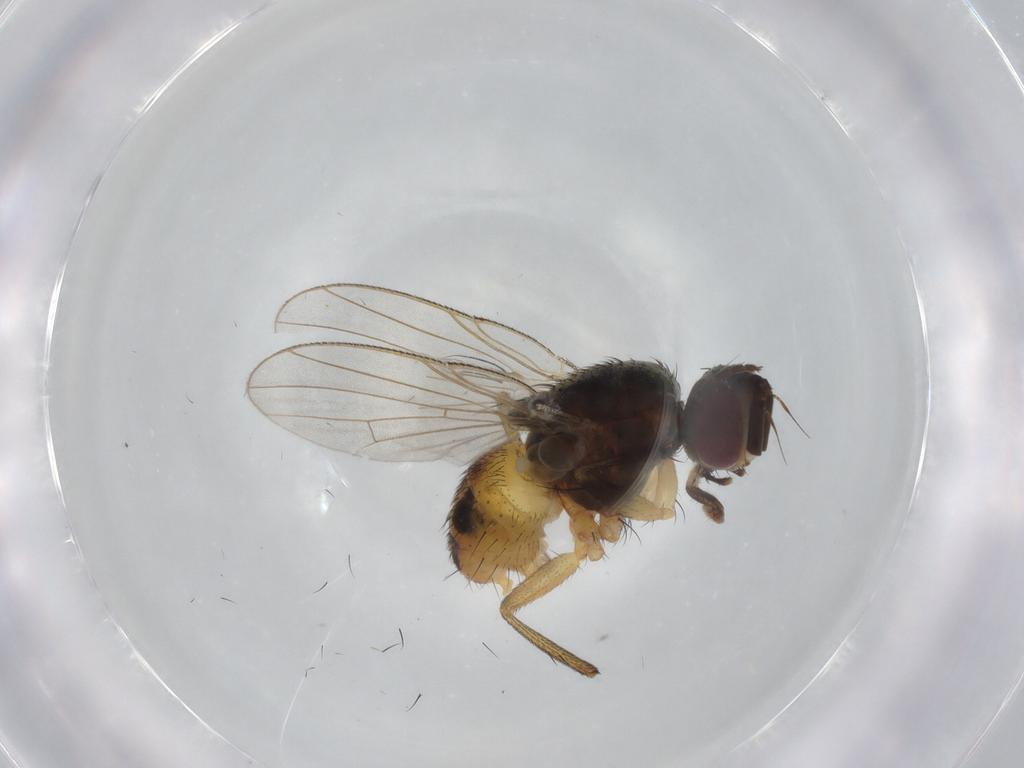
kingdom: Animalia
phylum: Arthropoda
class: Insecta
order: Diptera
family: Muscidae
